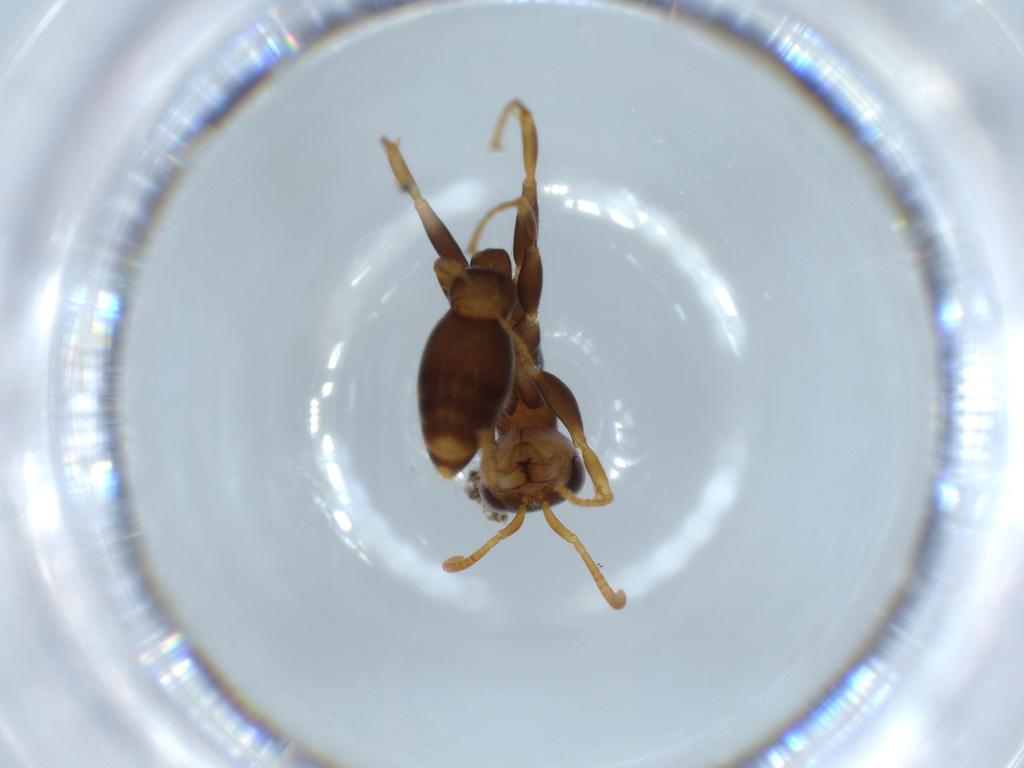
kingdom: Animalia
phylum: Arthropoda
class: Insecta
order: Hymenoptera
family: Formicidae
